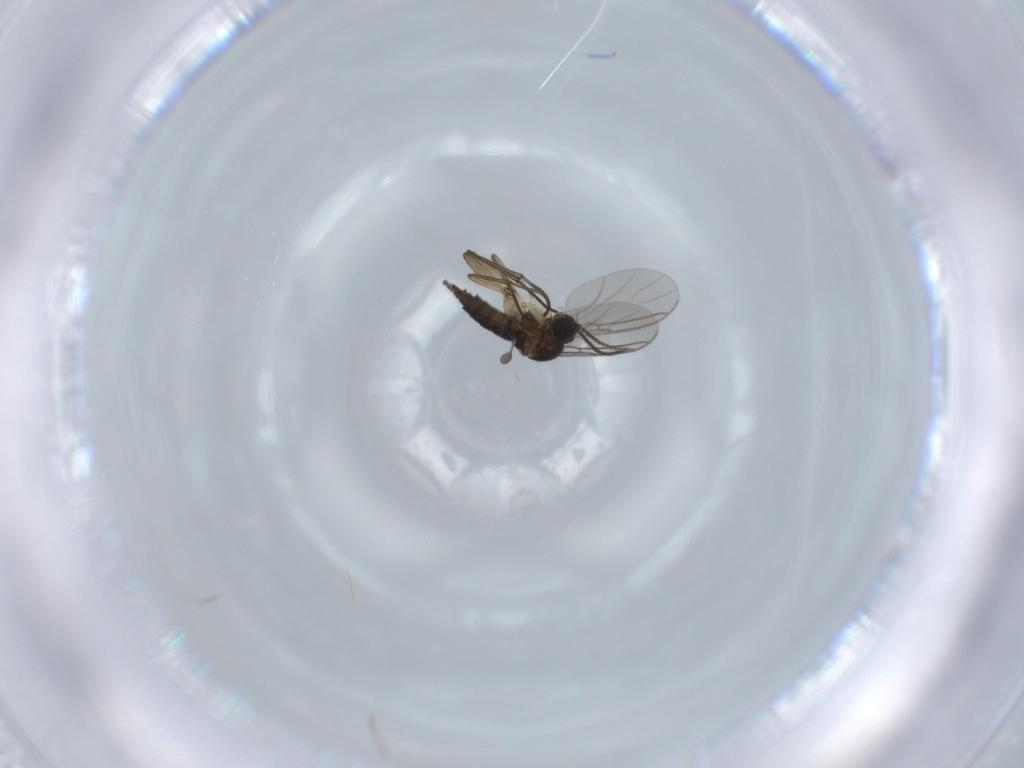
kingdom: Animalia
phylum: Arthropoda
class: Insecta
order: Diptera
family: Sciaridae
